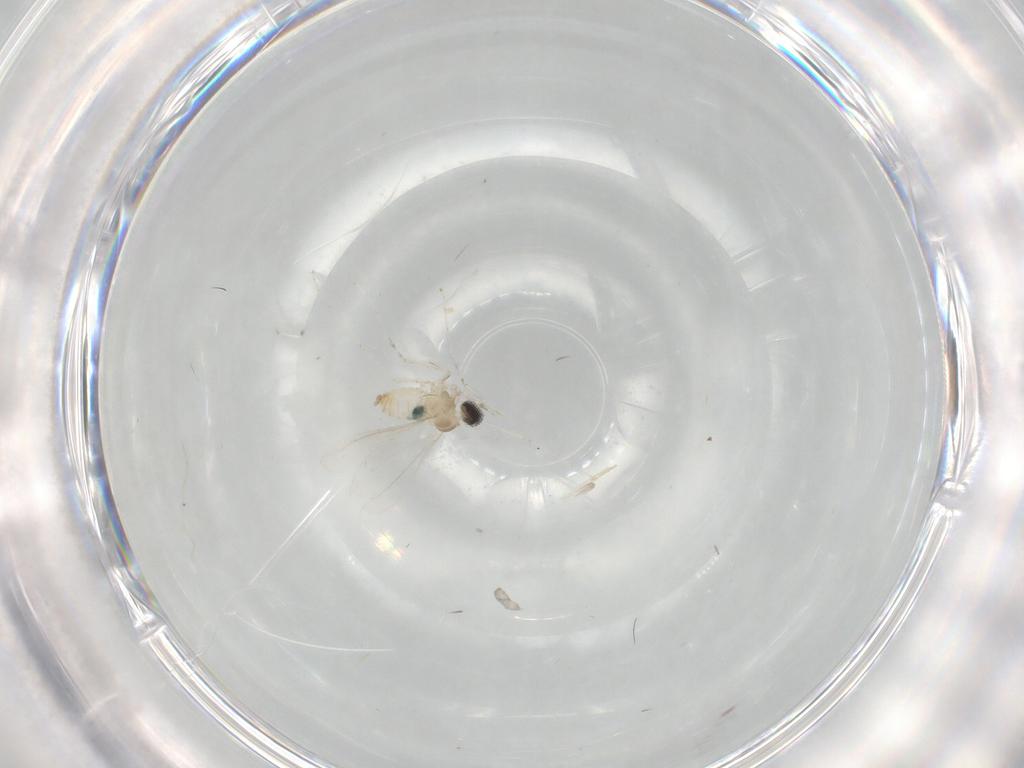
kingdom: Animalia
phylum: Arthropoda
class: Insecta
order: Diptera
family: Cecidomyiidae
